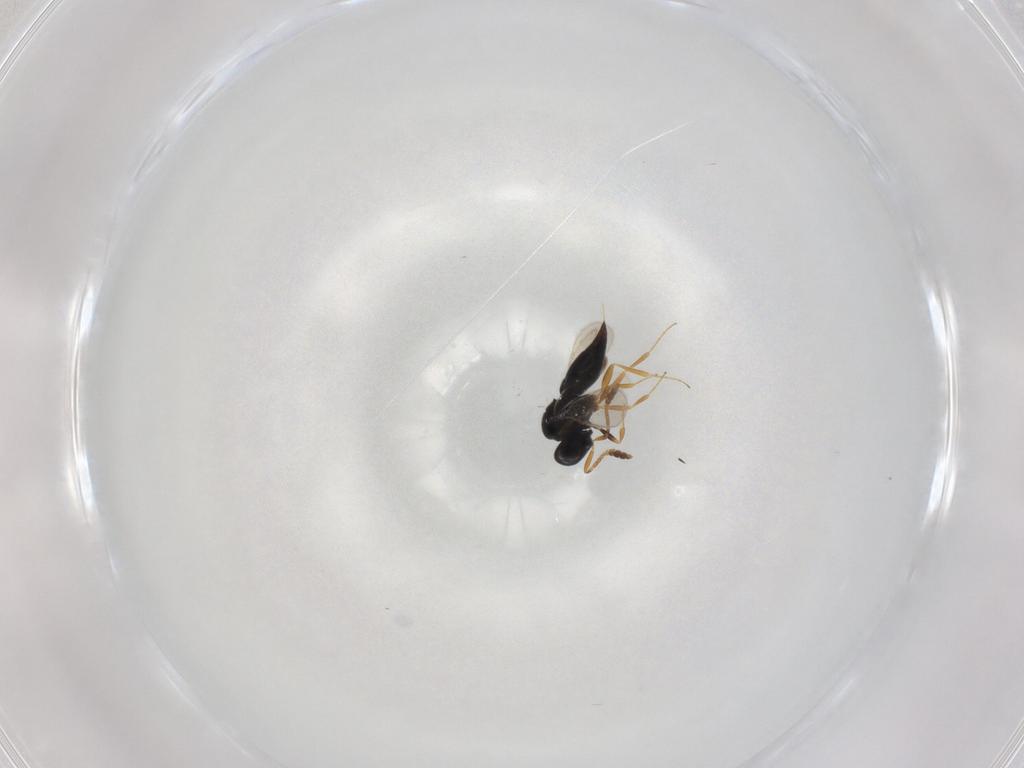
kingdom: Animalia
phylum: Arthropoda
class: Insecta
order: Hymenoptera
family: Scelionidae
